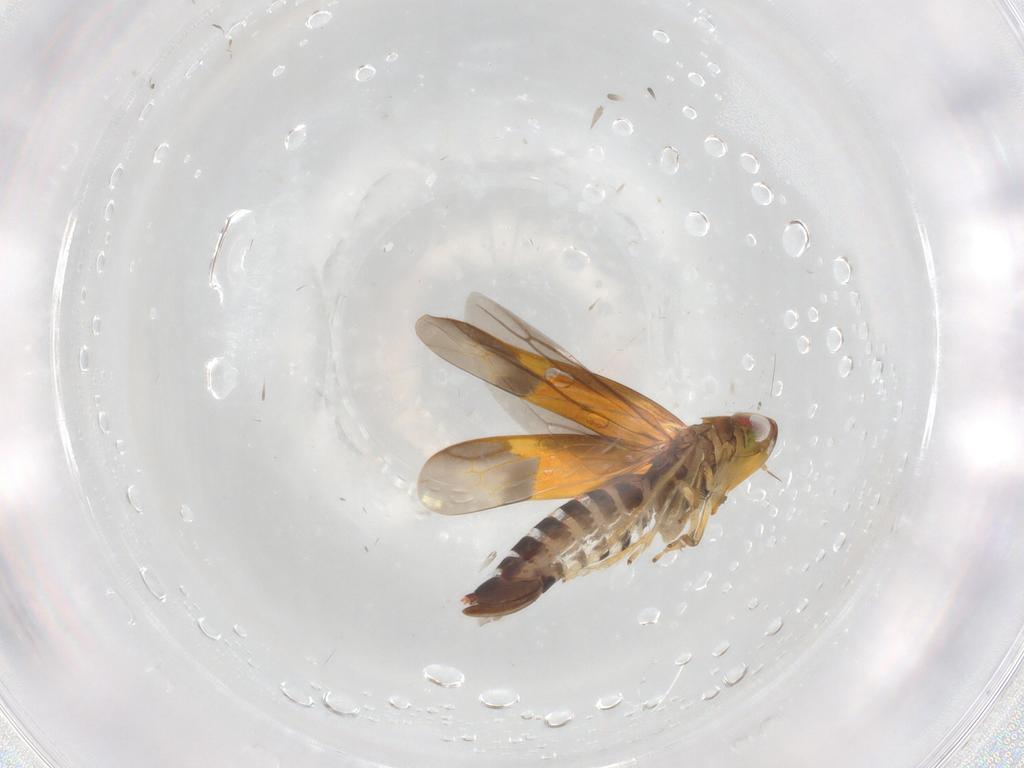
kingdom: Animalia
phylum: Arthropoda
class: Insecta
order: Hemiptera
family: Cicadellidae
